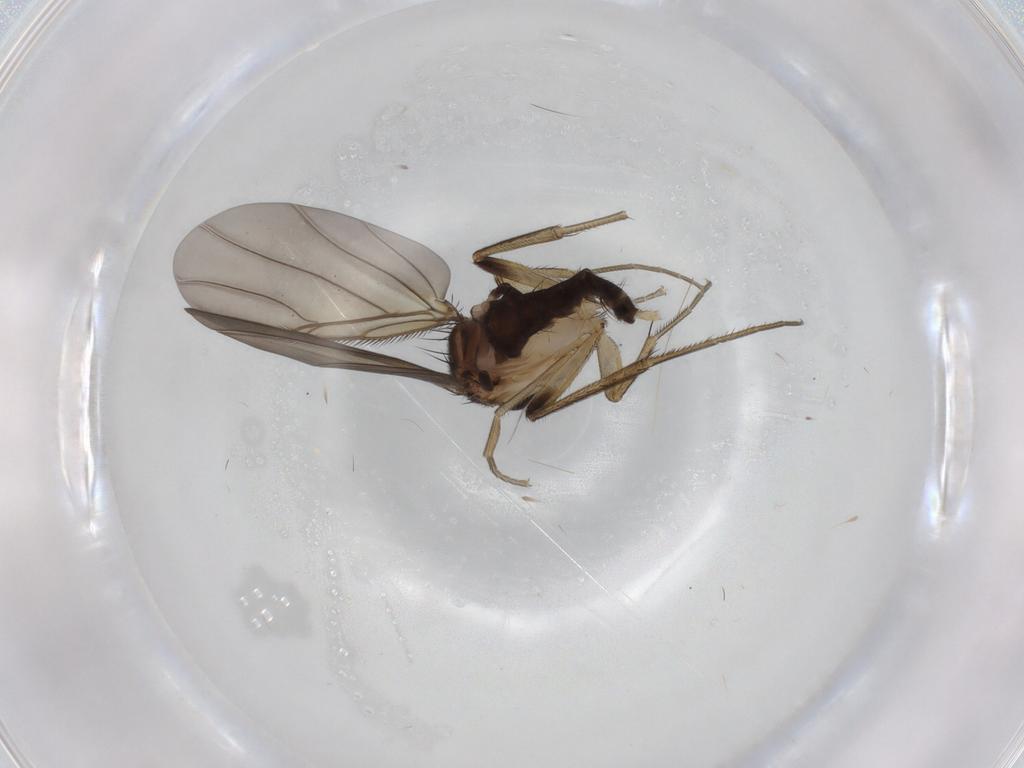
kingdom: Animalia
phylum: Arthropoda
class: Insecta
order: Diptera
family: Phoridae
